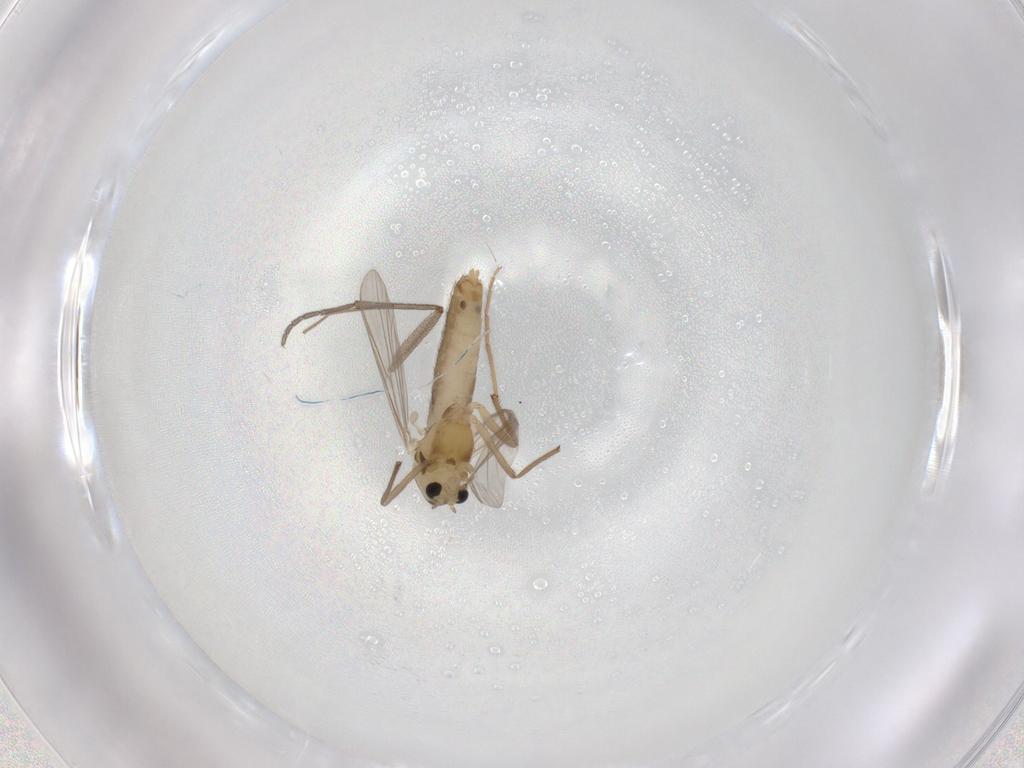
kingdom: Animalia
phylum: Arthropoda
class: Insecta
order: Diptera
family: Chironomidae
